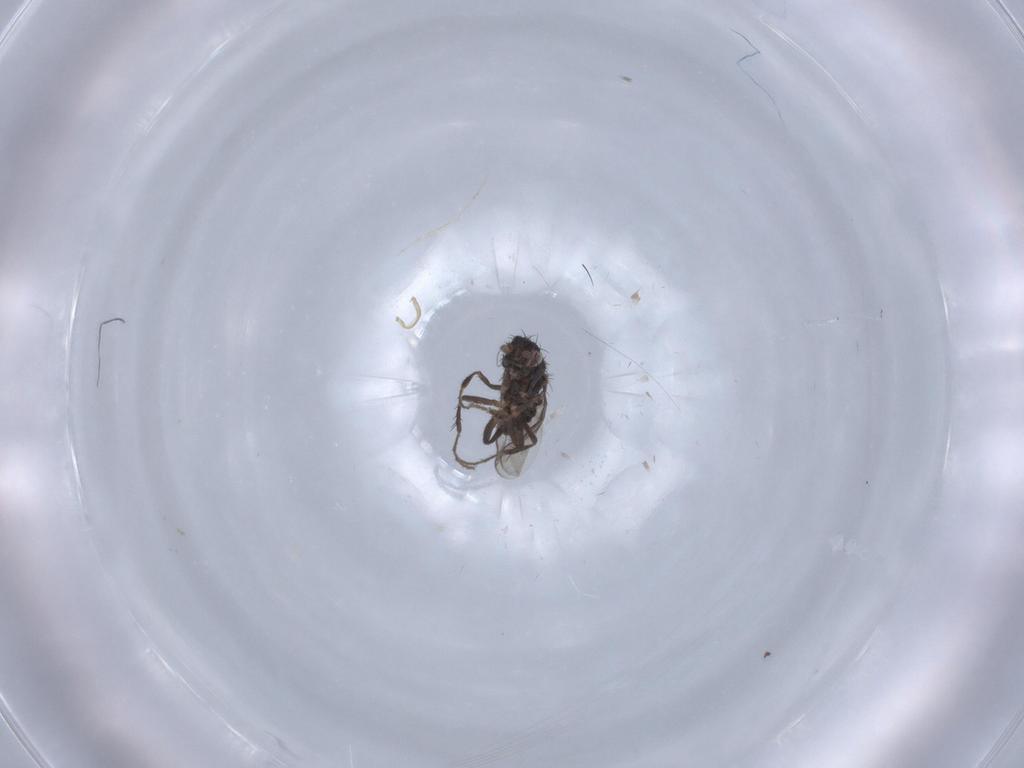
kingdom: Animalia
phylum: Arthropoda
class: Insecta
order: Diptera
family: Sphaeroceridae
